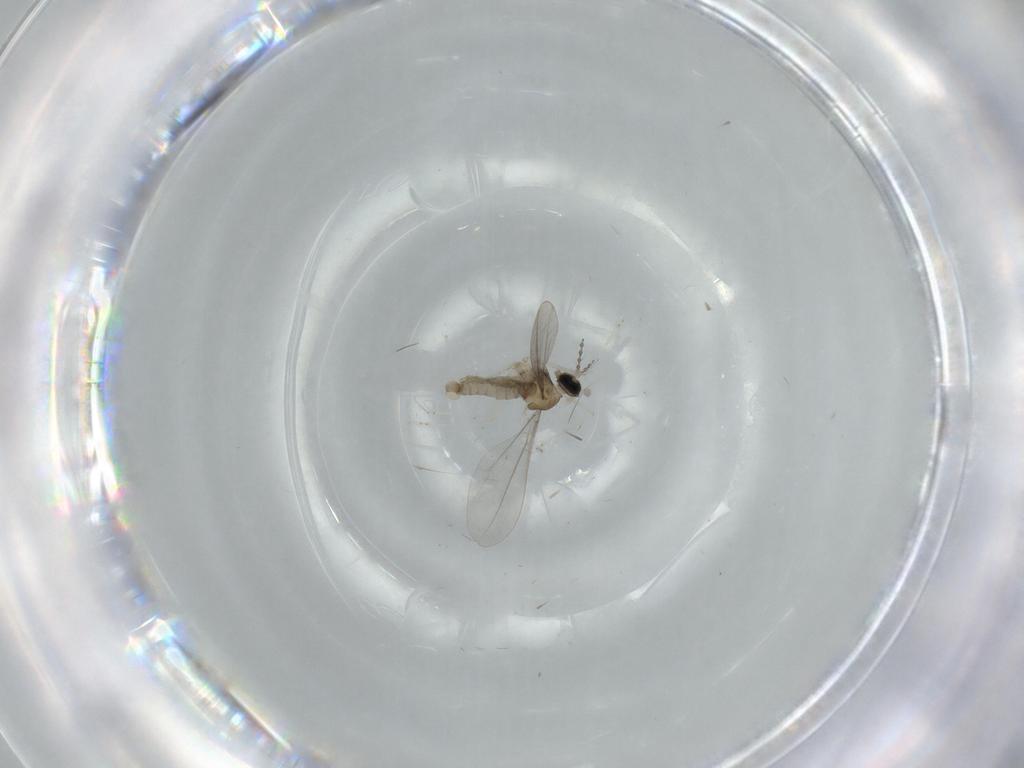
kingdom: Animalia
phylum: Arthropoda
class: Insecta
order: Diptera
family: Cecidomyiidae
